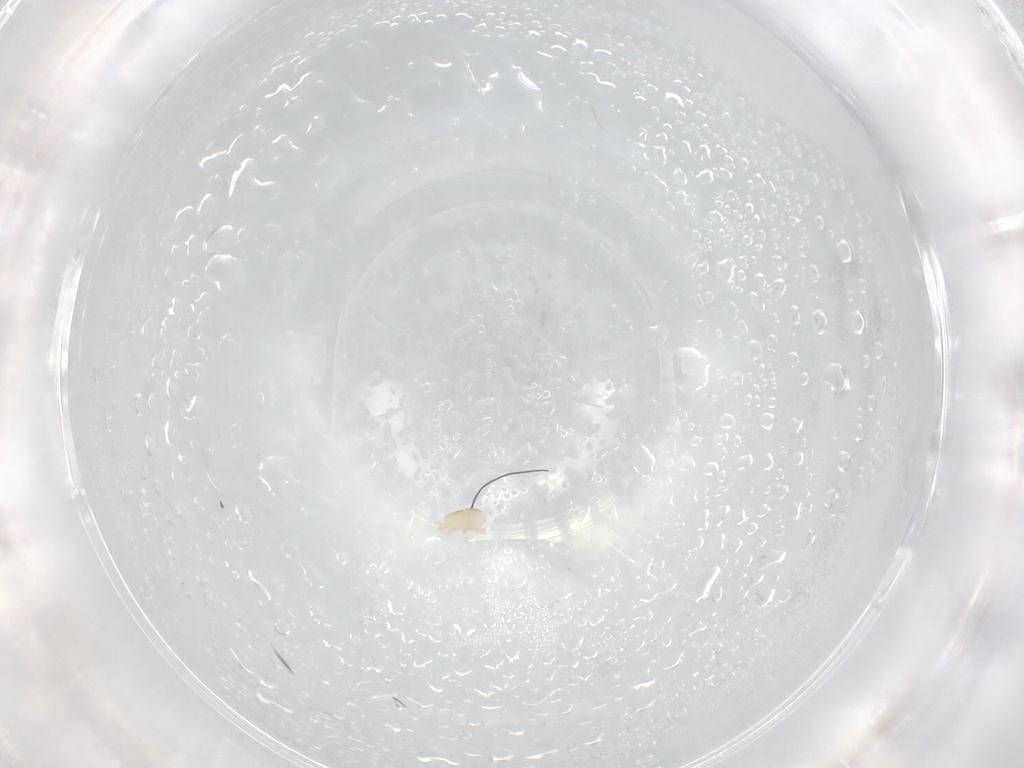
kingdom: Animalia
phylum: Arthropoda
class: Arachnida
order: Mesostigmata
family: Halolaelapidae
